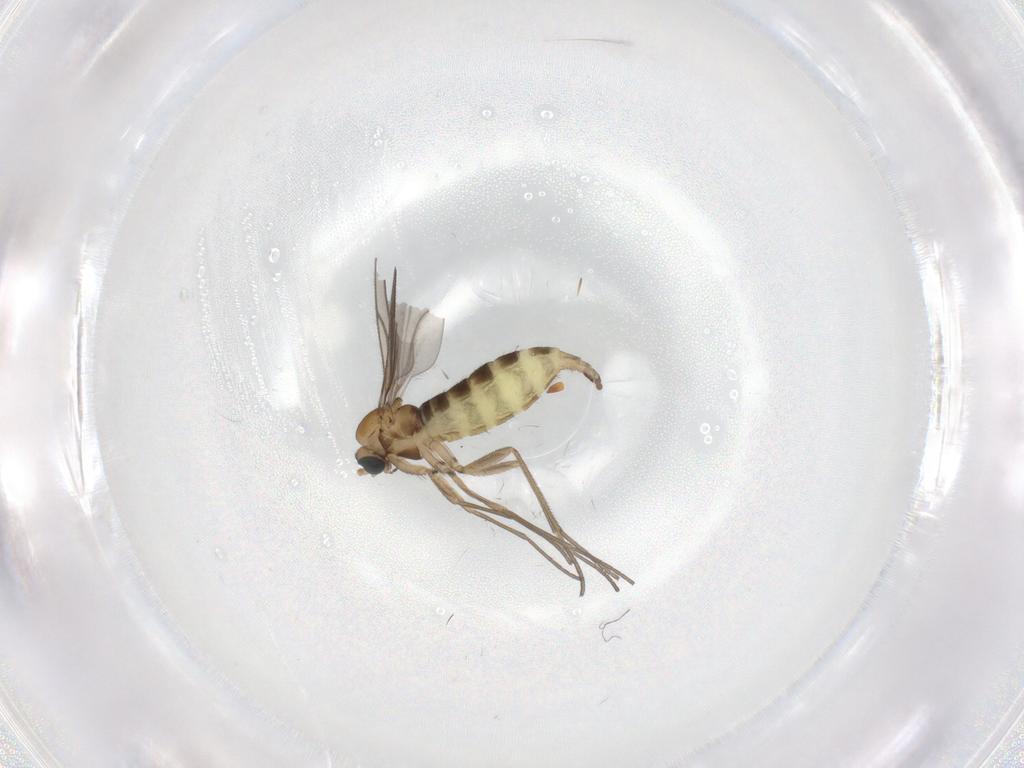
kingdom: Animalia
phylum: Arthropoda
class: Insecta
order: Diptera
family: Sciaridae
